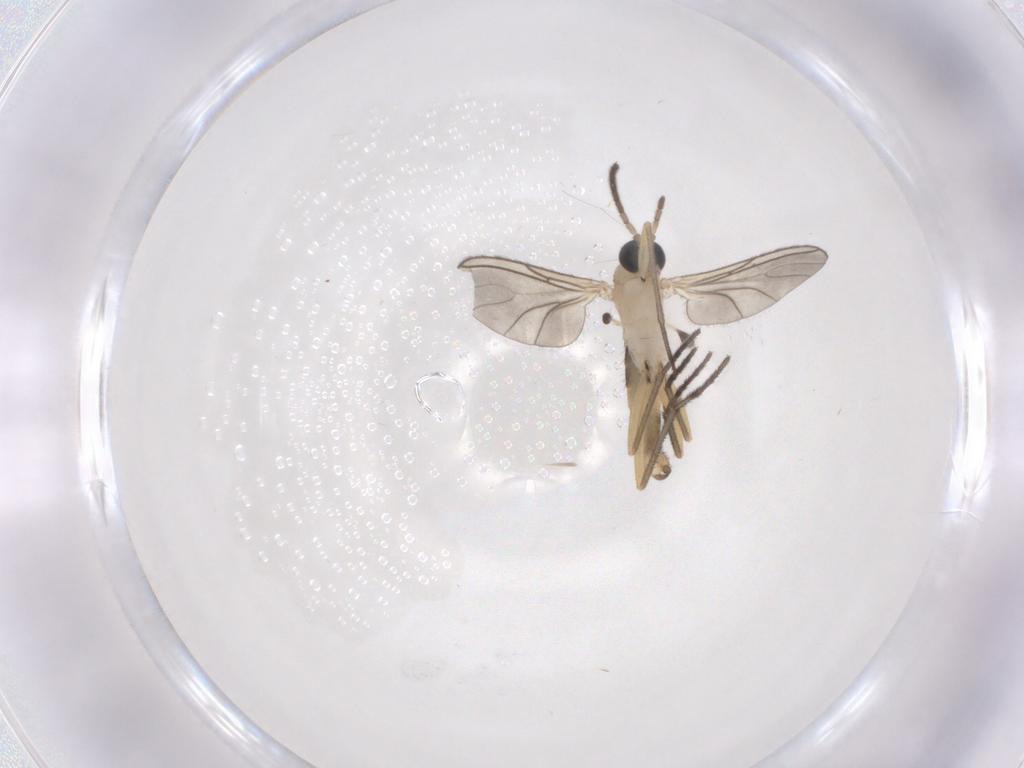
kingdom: Animalia
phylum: Arthropoda
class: Insecta
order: Diptera
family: Sciaridae
